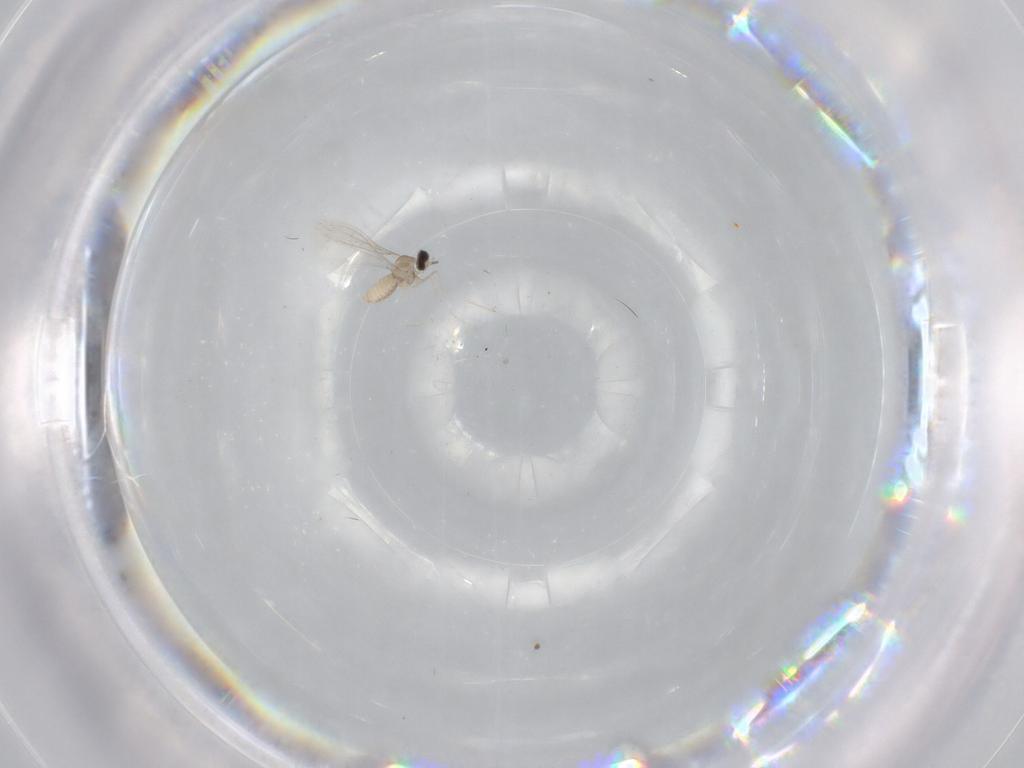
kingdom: Animalia
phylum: Arthropoda
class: Insecta
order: Diptera
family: Cecidomyiidae
